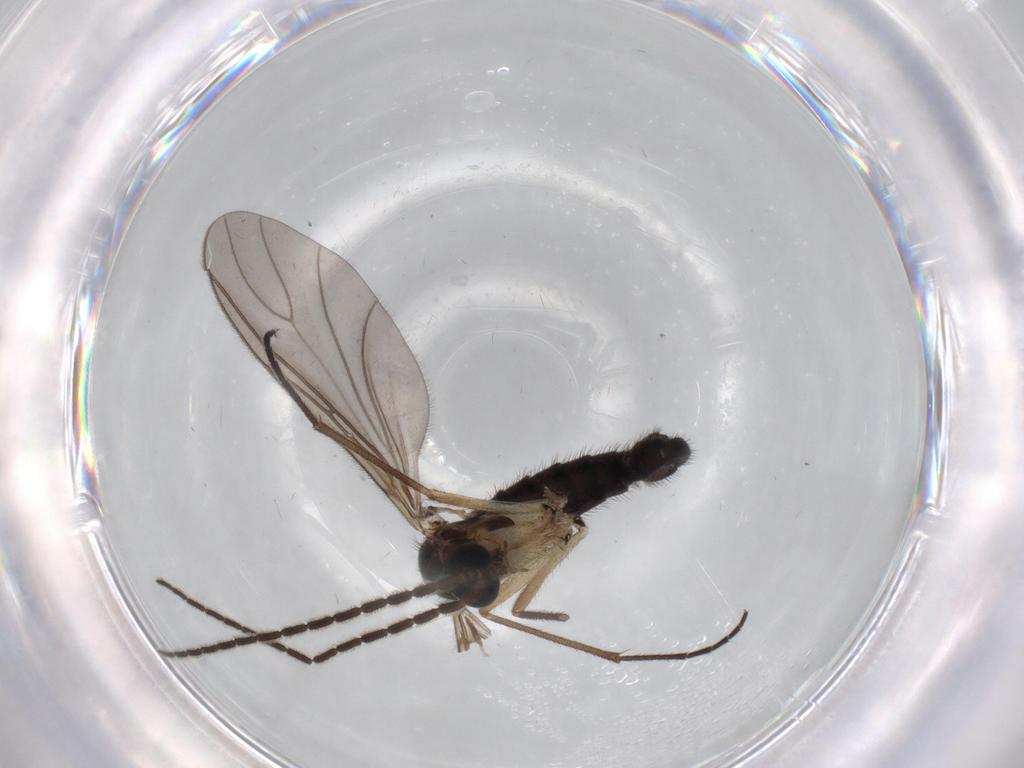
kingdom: Animalia
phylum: Arthropoda
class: Insecta
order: Diptera
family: Sciaridae
